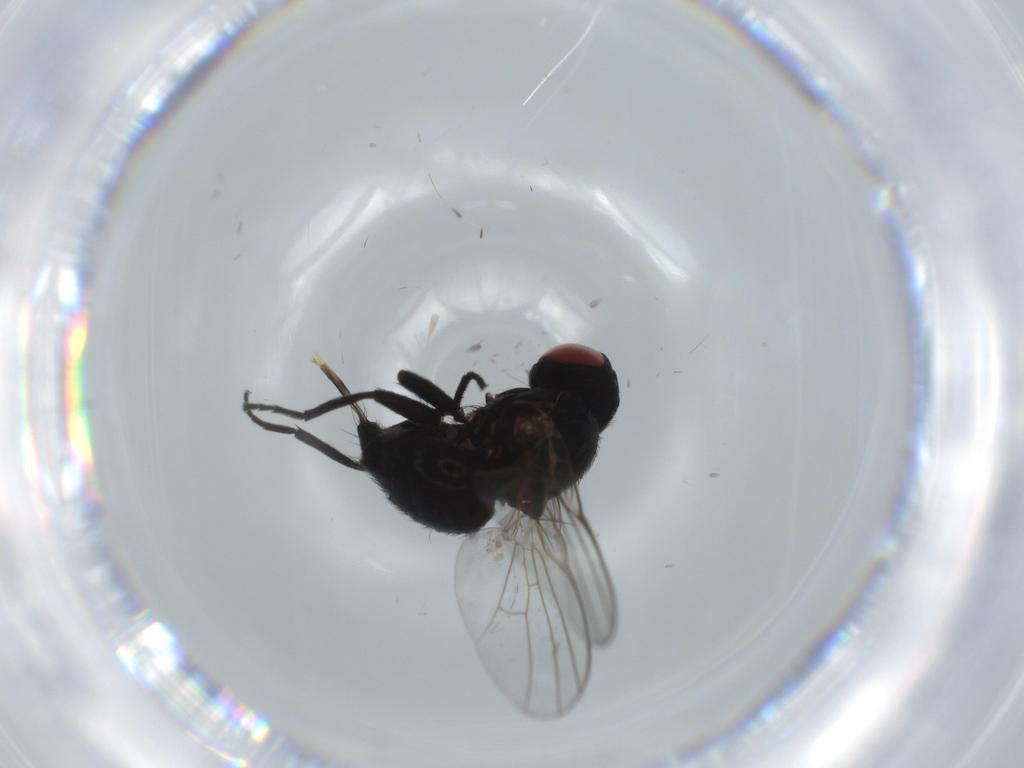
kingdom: Animalia
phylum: Arthropoda
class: Insecta
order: Diptera
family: Agromyzidae
